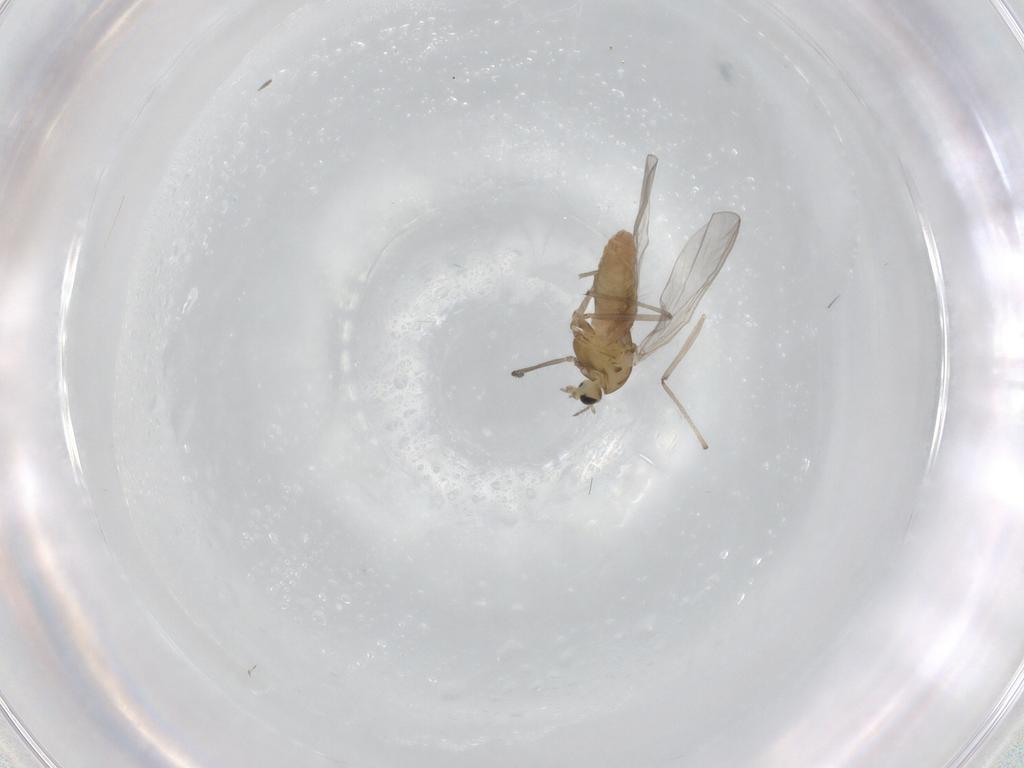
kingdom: Animalia
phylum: Arthropoda
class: Insecta
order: Diptera
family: Chironomidae
